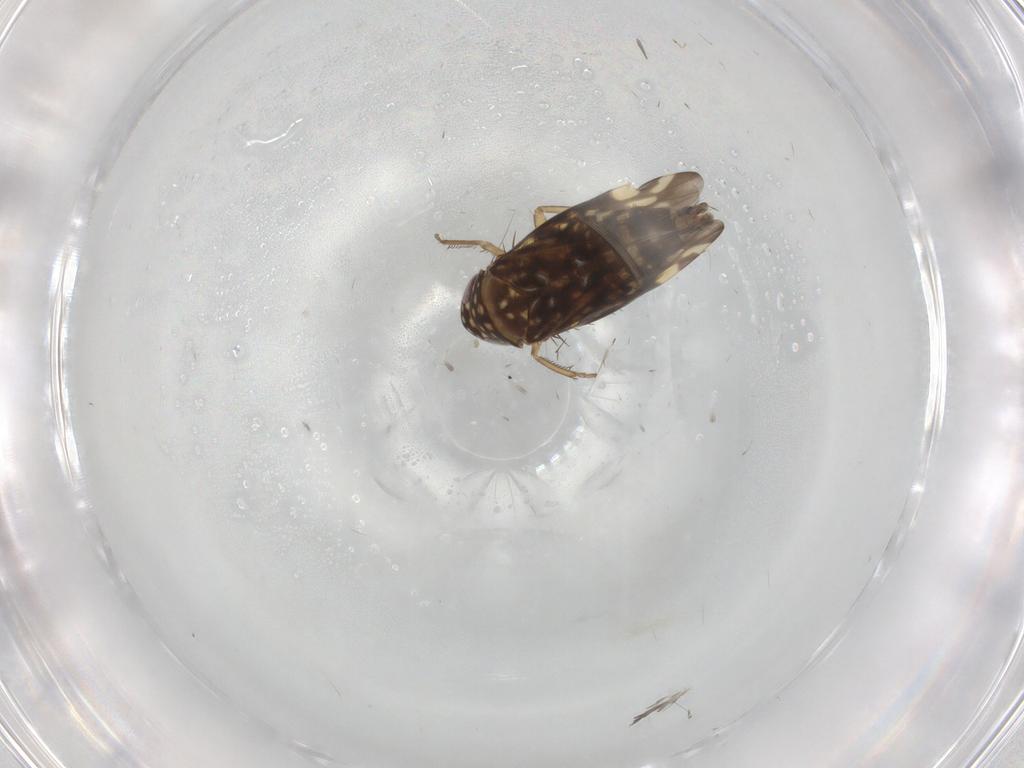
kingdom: Animalia
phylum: Arthropoda
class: Insecta
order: Hemiptera
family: Cicadellidae
